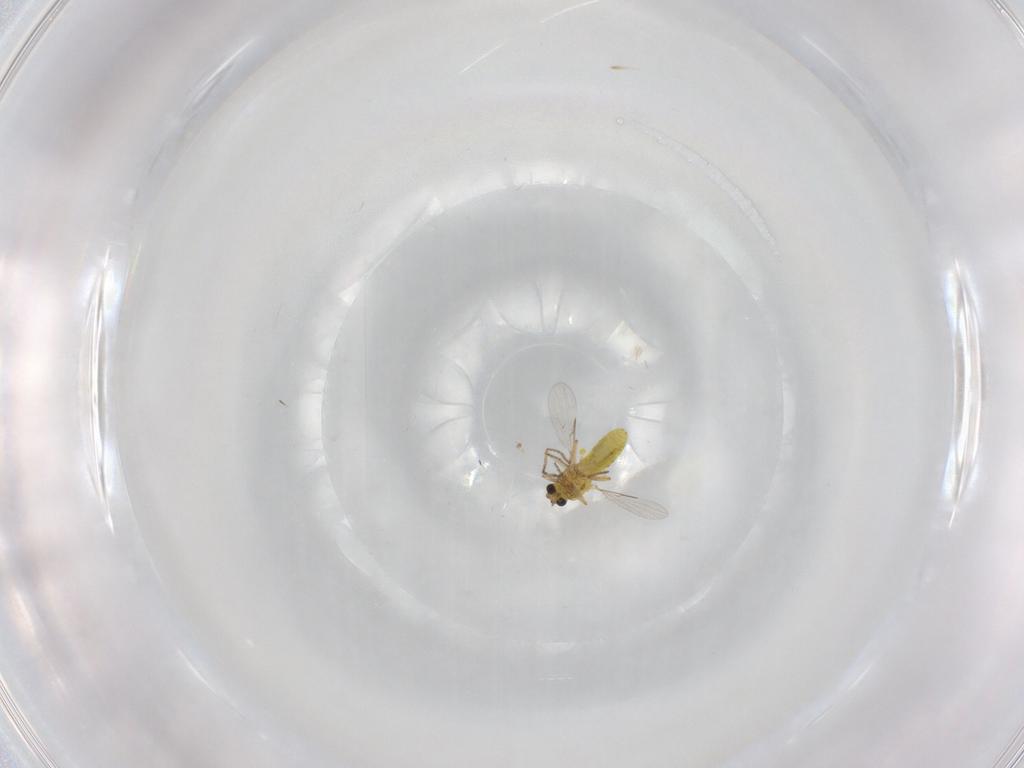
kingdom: Animalia
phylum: Arthropoda
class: Insecta
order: Diptera
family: Ceratopogonidae
